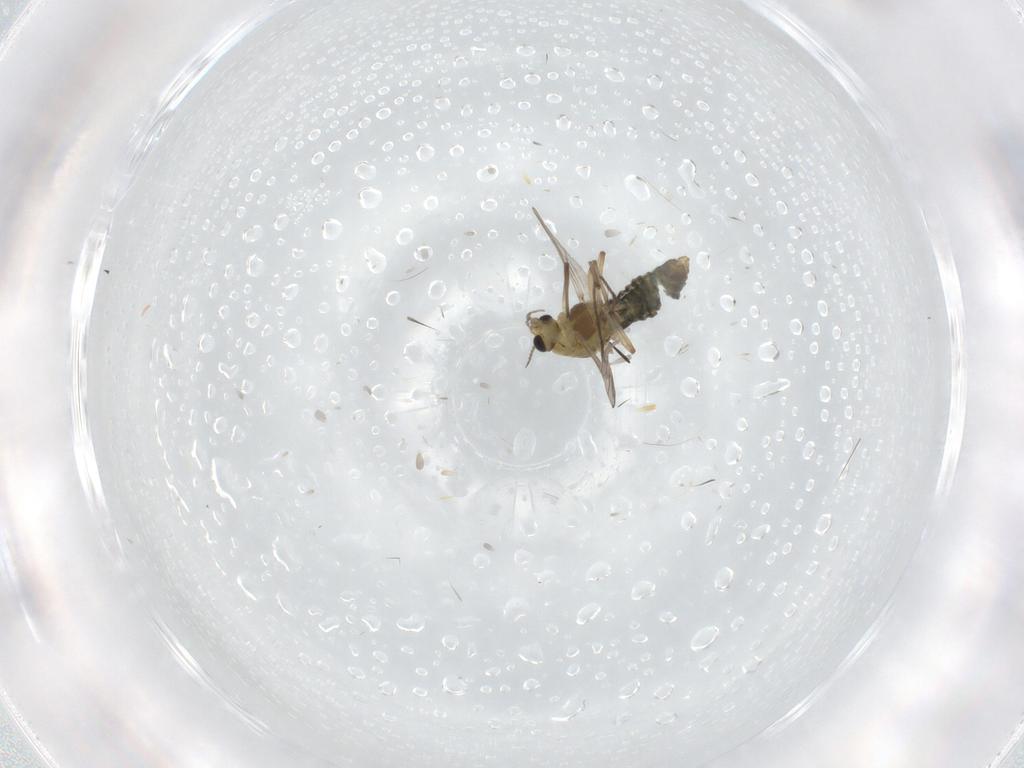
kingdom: Animalia
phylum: Arthropoda
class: Insecta
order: Diptera
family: Chironomidae
